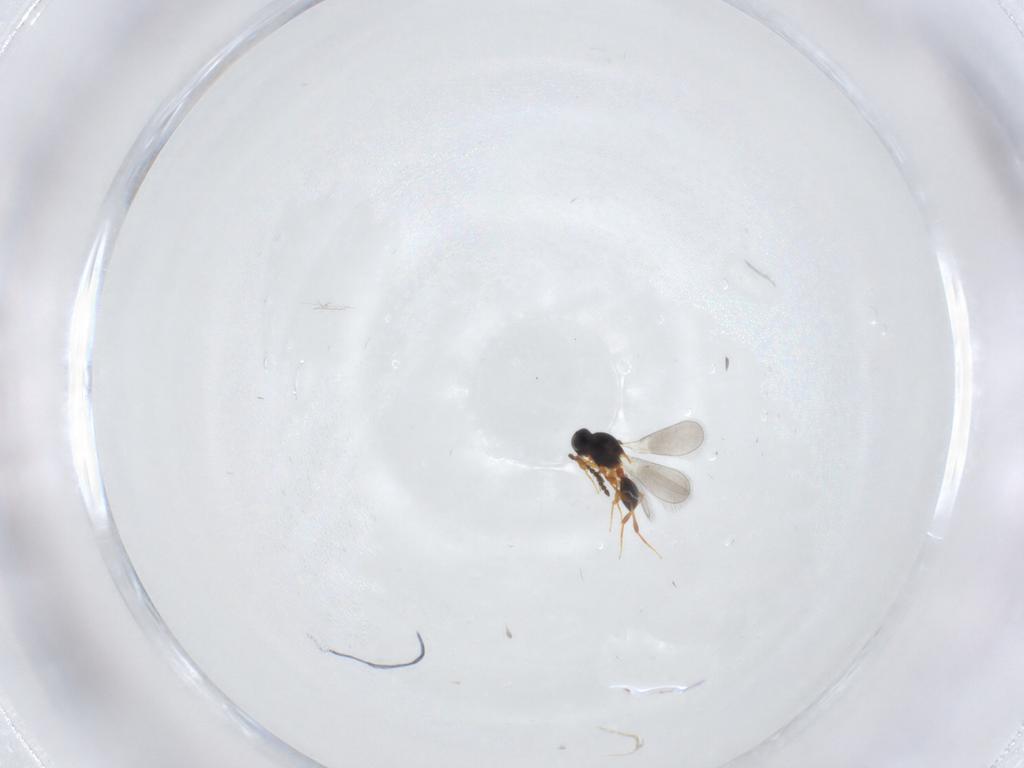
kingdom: Animalia
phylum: Arthropoda
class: Insecta
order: Hymenoptera
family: Platygastridae
